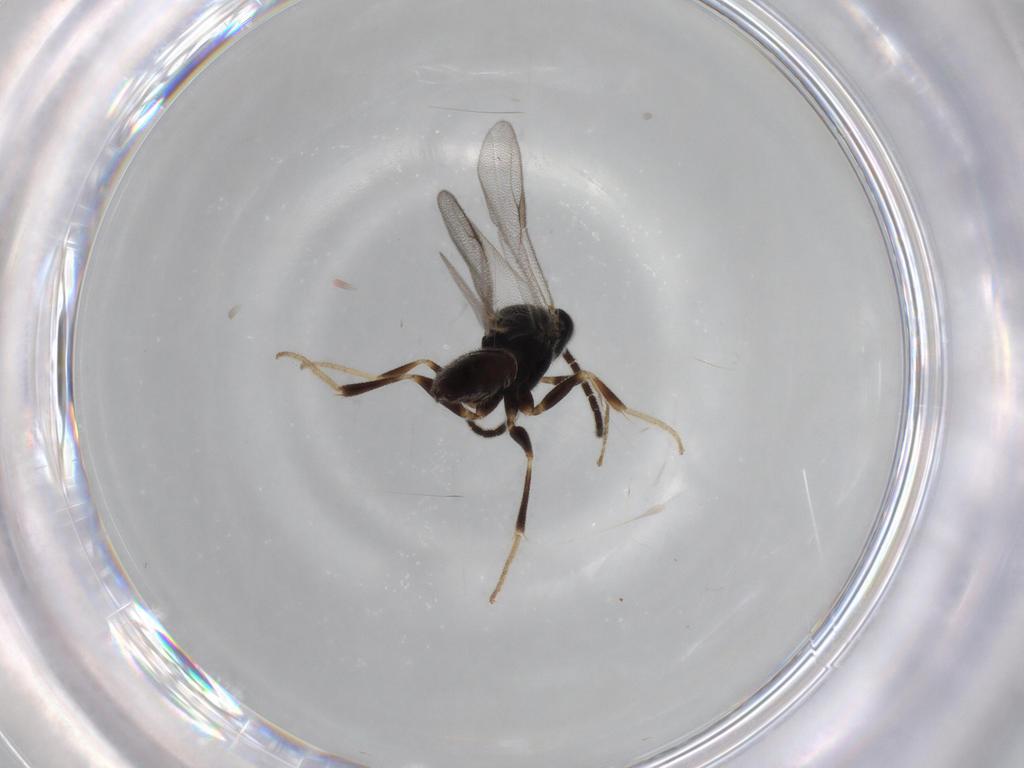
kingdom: Animalia
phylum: Arthropoda
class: Insecta
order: Hymenoptera
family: Dryinidae
